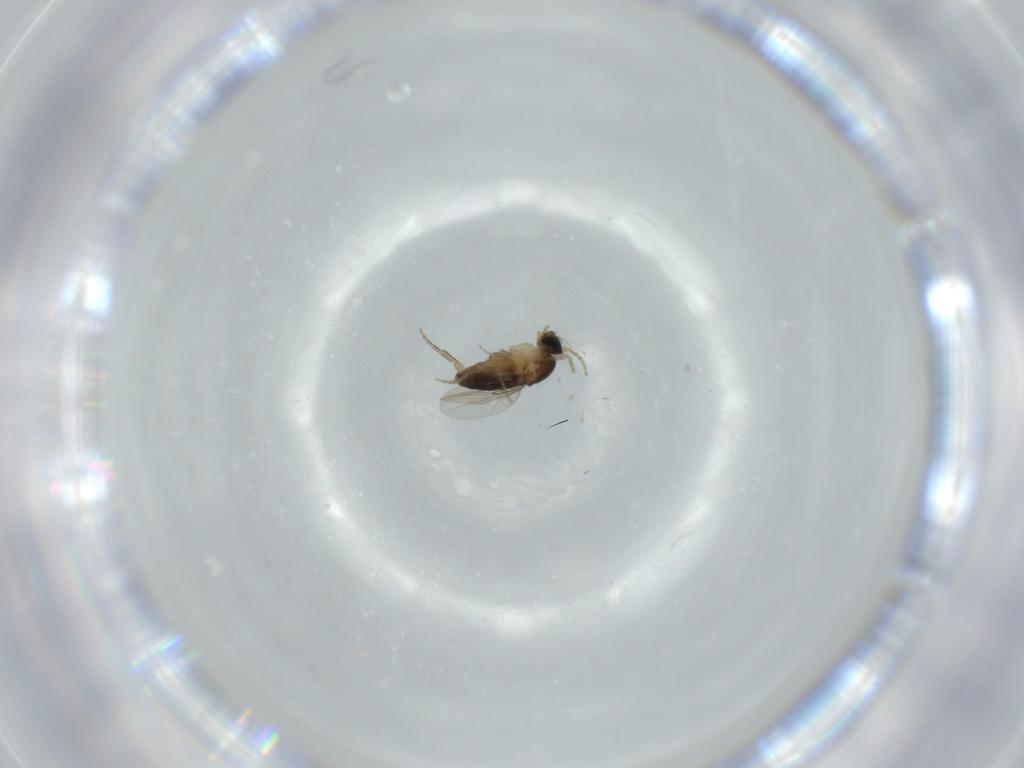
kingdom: Animalia
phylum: Arthropoda
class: Insecta
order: Diptera
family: Phoridae
